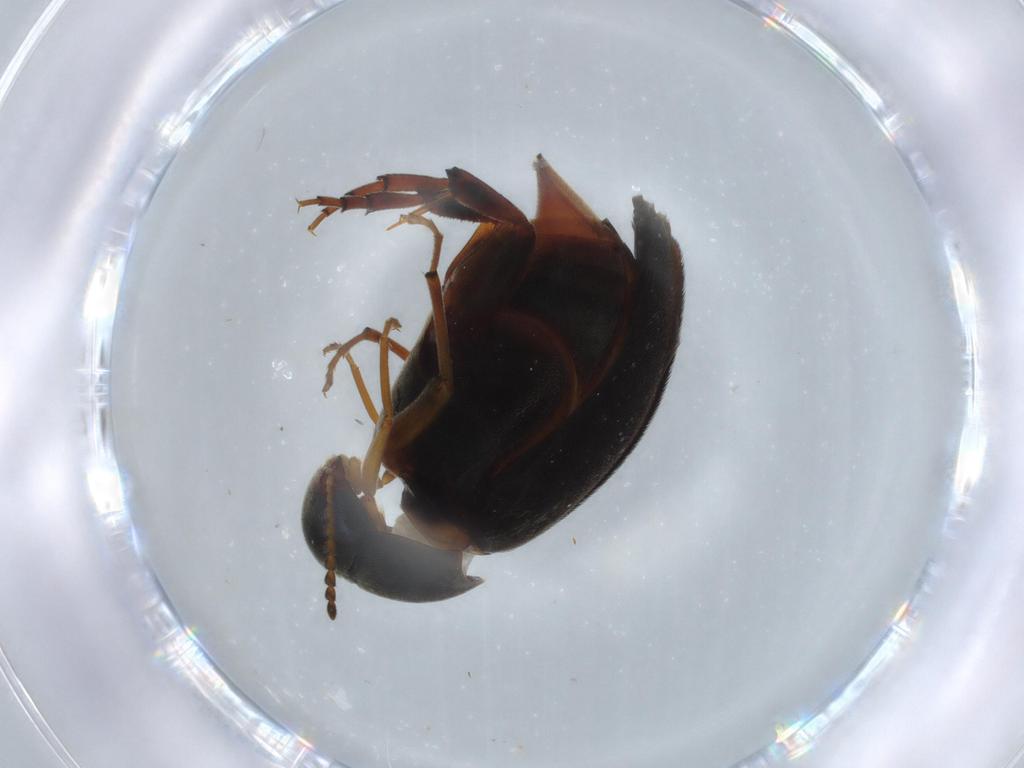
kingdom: Animalia
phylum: Arthropoda
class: Insecta
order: Coleoptera
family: Mordellidae
